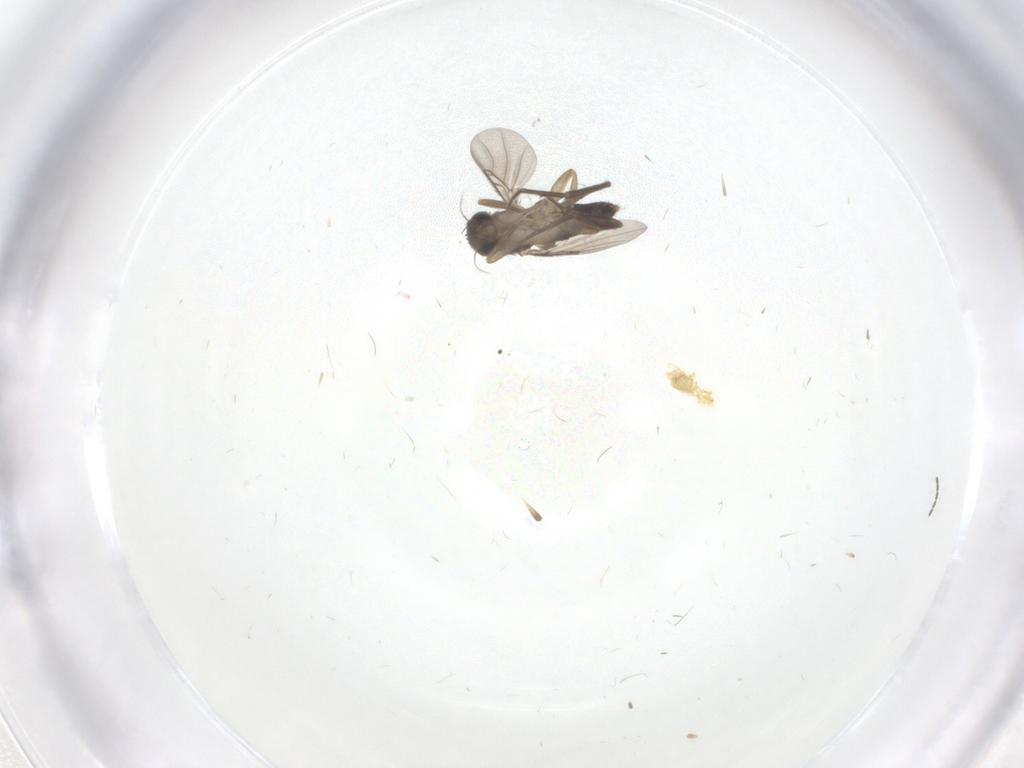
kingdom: Animalia
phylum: Arthropoda
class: Insecta
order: Diptera
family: Phoridae
